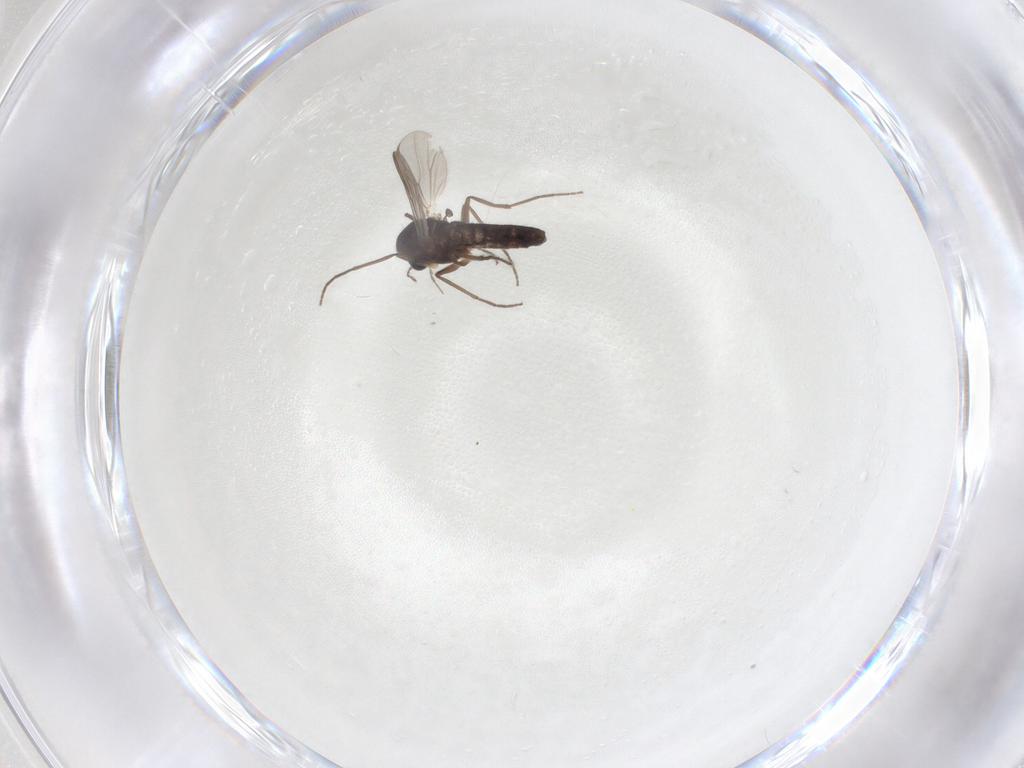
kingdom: Animalia
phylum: Arthropoda
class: Insecta
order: Diptera
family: Chironomidae
